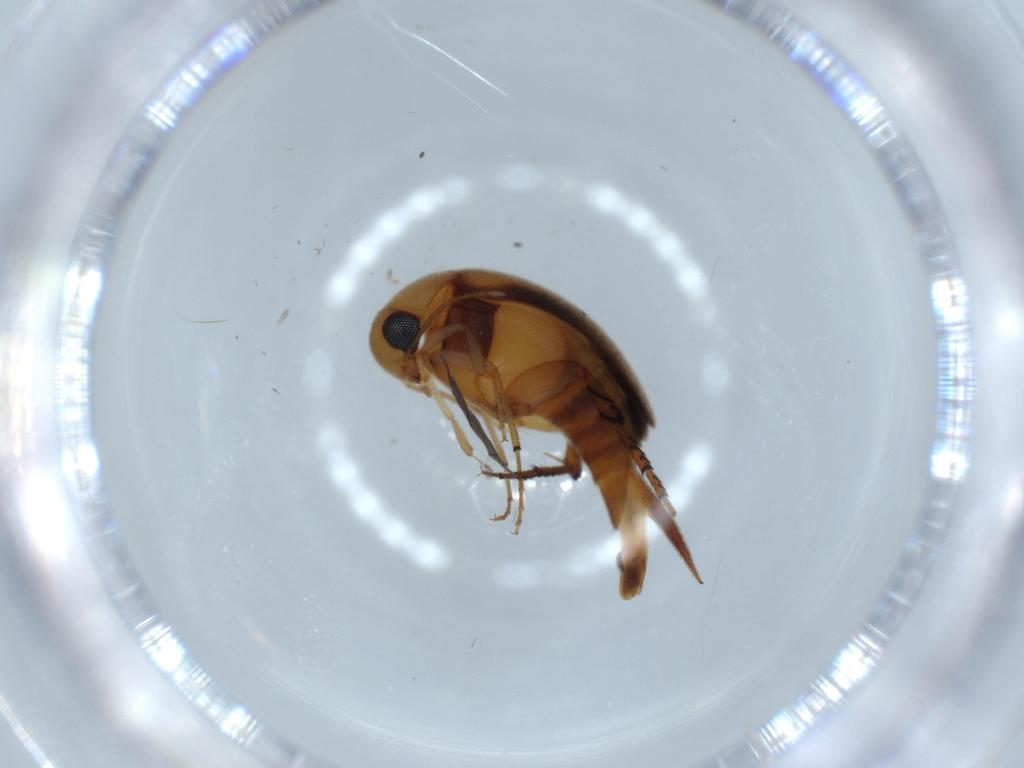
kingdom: Animalia
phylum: Arthropoda
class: Insecta
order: Coleoptera
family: Mordellidae
